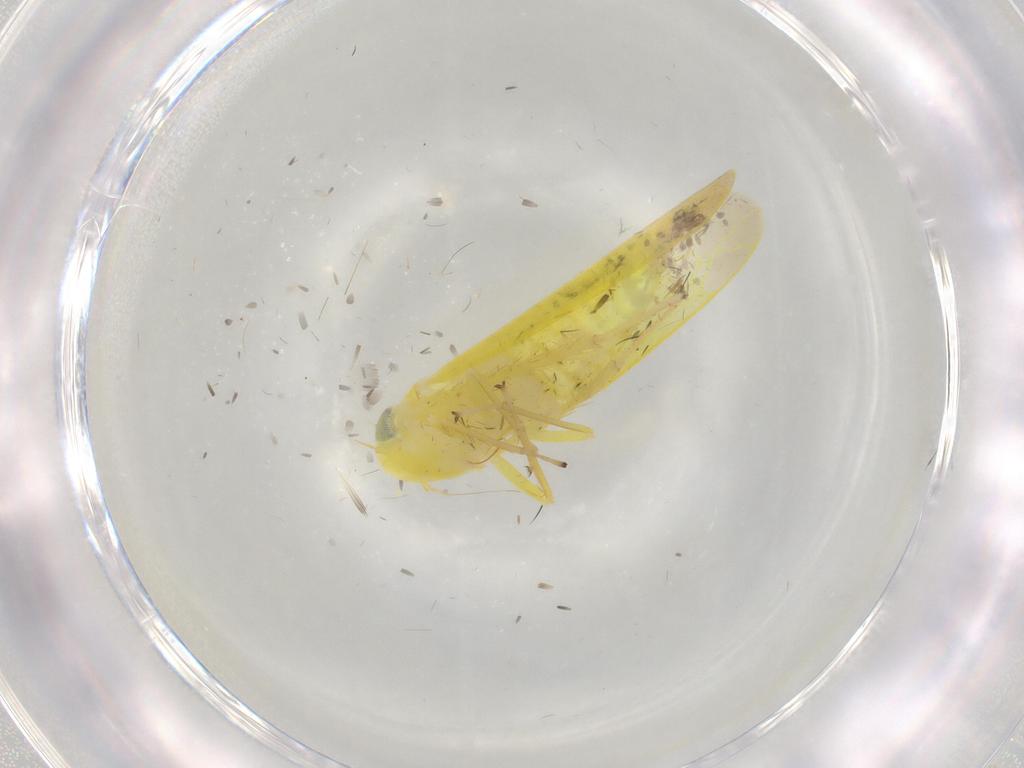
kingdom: Animalia
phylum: Arthropoda
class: Insecta
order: Hemiptera
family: Cicadellidae
